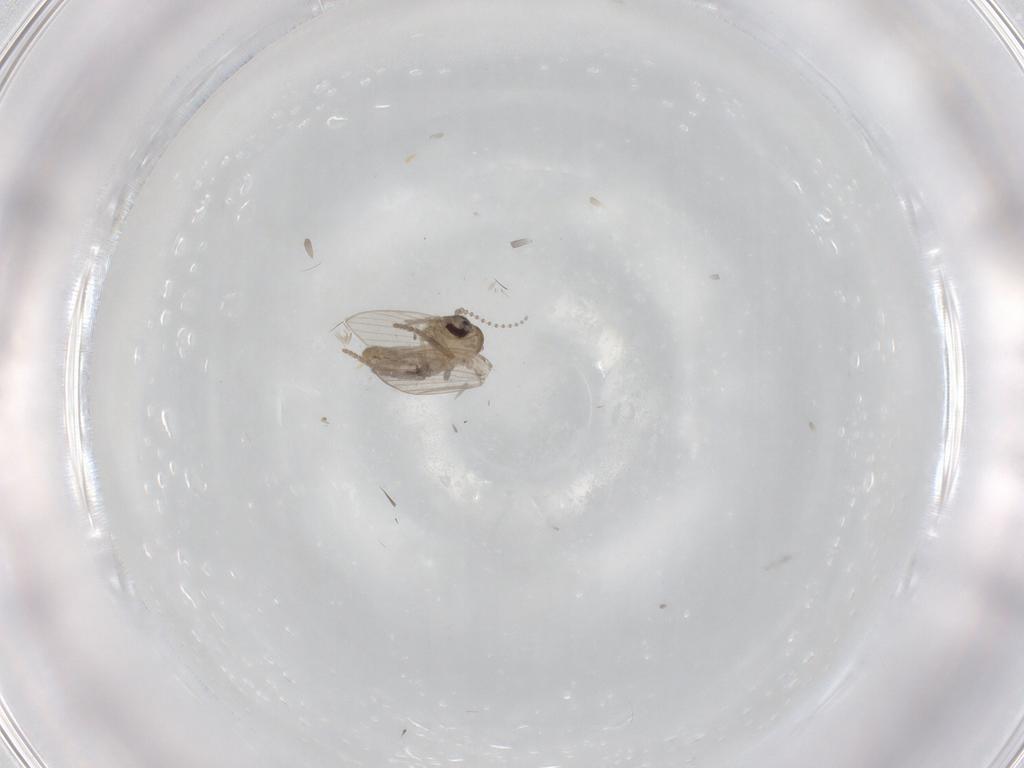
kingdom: Animalia
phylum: Arthropoda
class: Insecta
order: Diptera
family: Psychodidae
